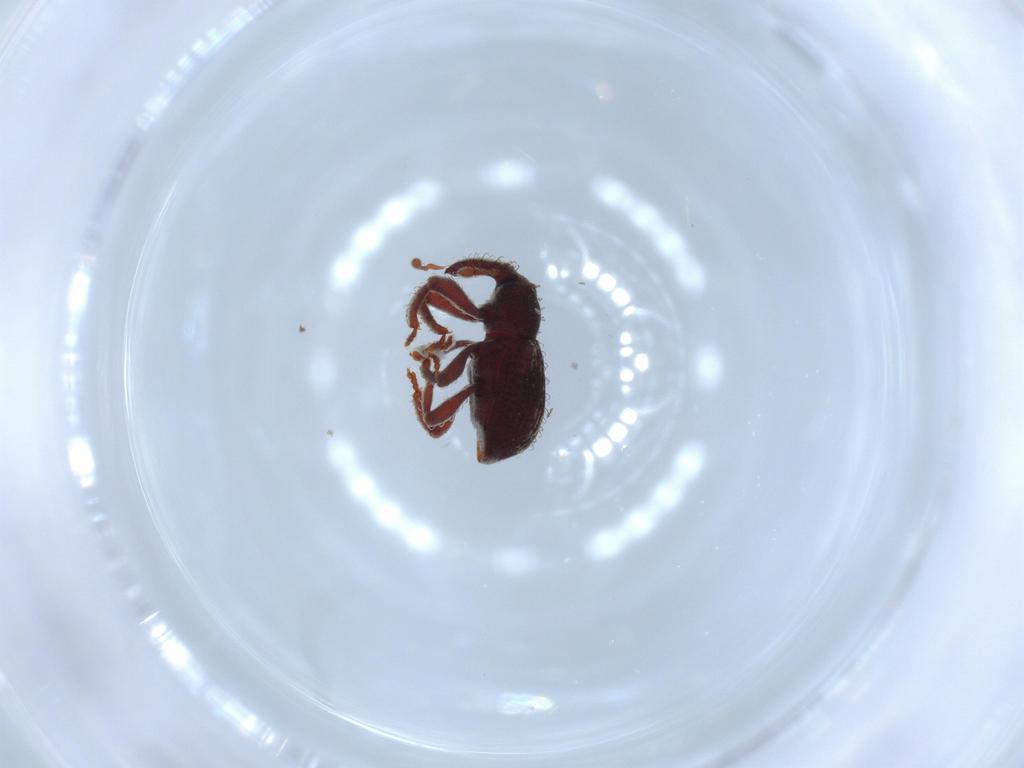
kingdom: Animalia
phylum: Arthropoda
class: Insecta
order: Coleoptera
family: Curculionidae
